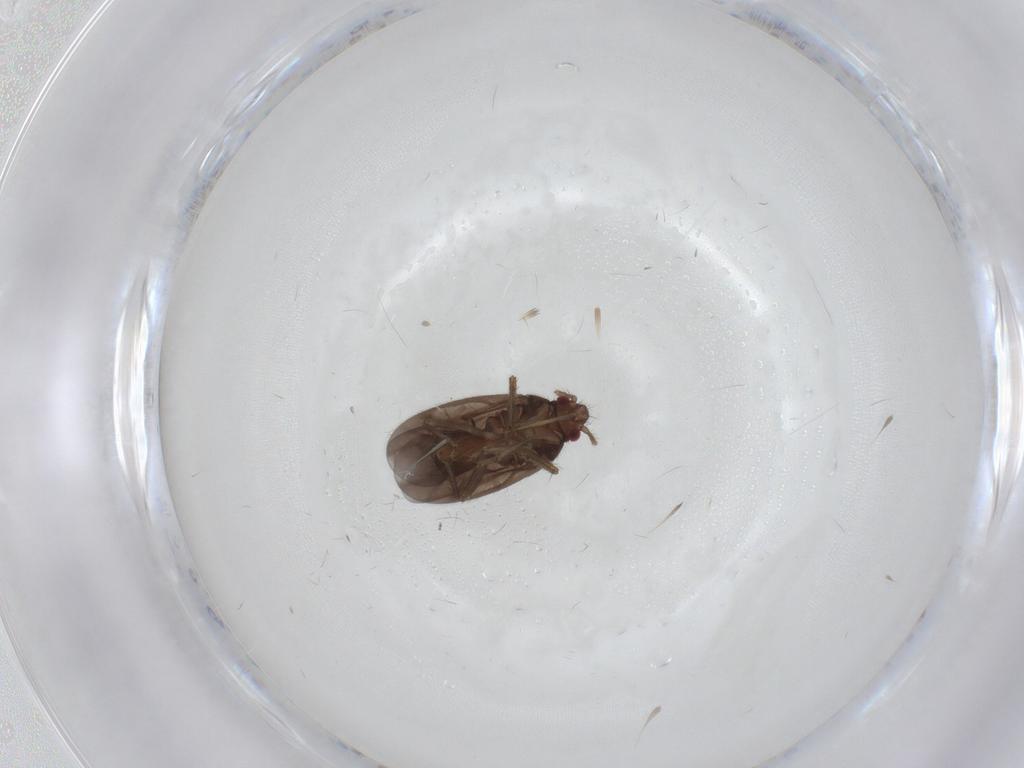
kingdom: Animalia
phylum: Arthropoda
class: Insecta
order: Hemiptera
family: Ceratocombidae
